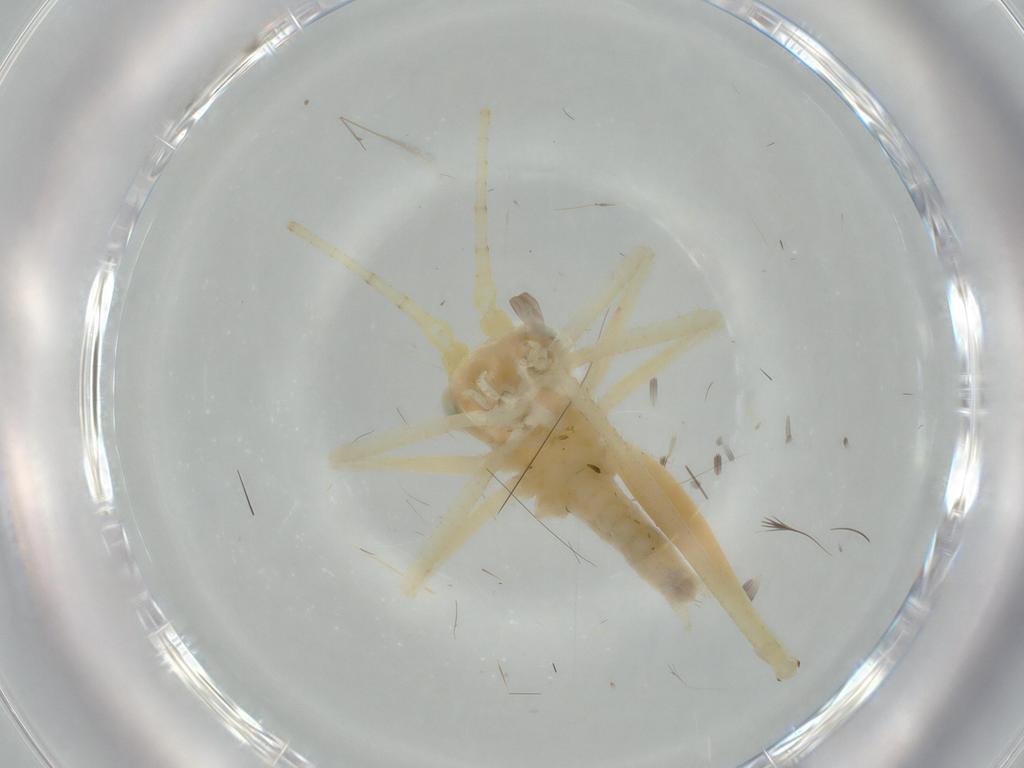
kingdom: Animalia
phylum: Arthropoda
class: Insecta
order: Orthoptera
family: Tettigoniidae
